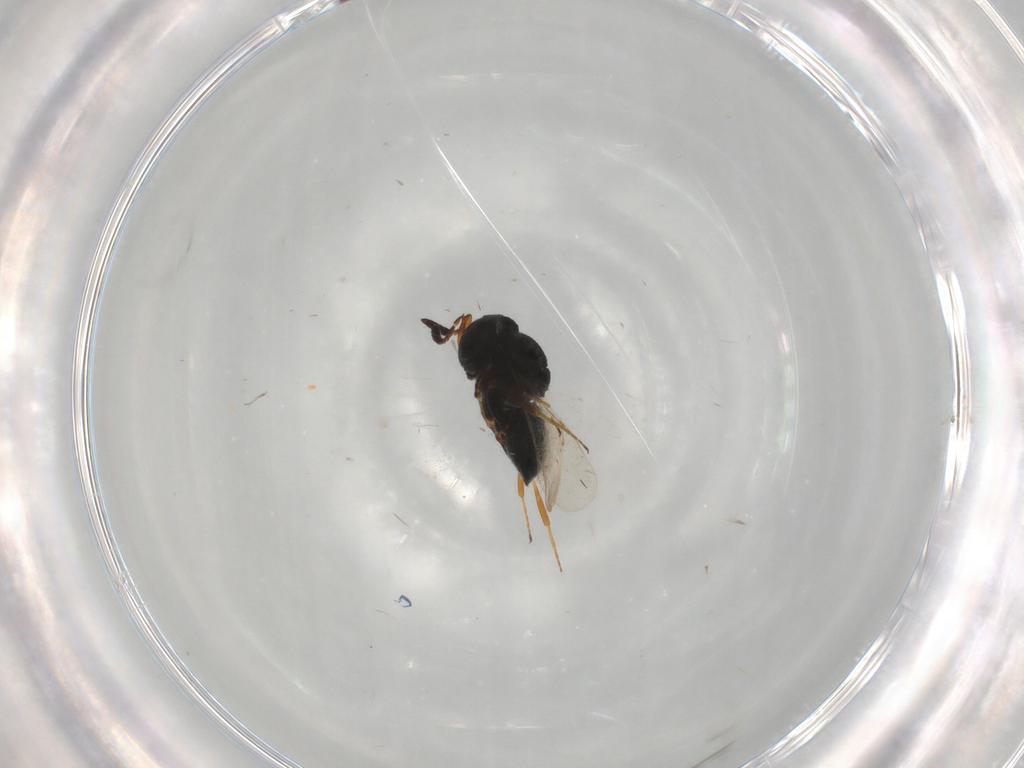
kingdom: Animalia
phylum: Arthropoda
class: Insecta
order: Coleoptera
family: Curculionidae
